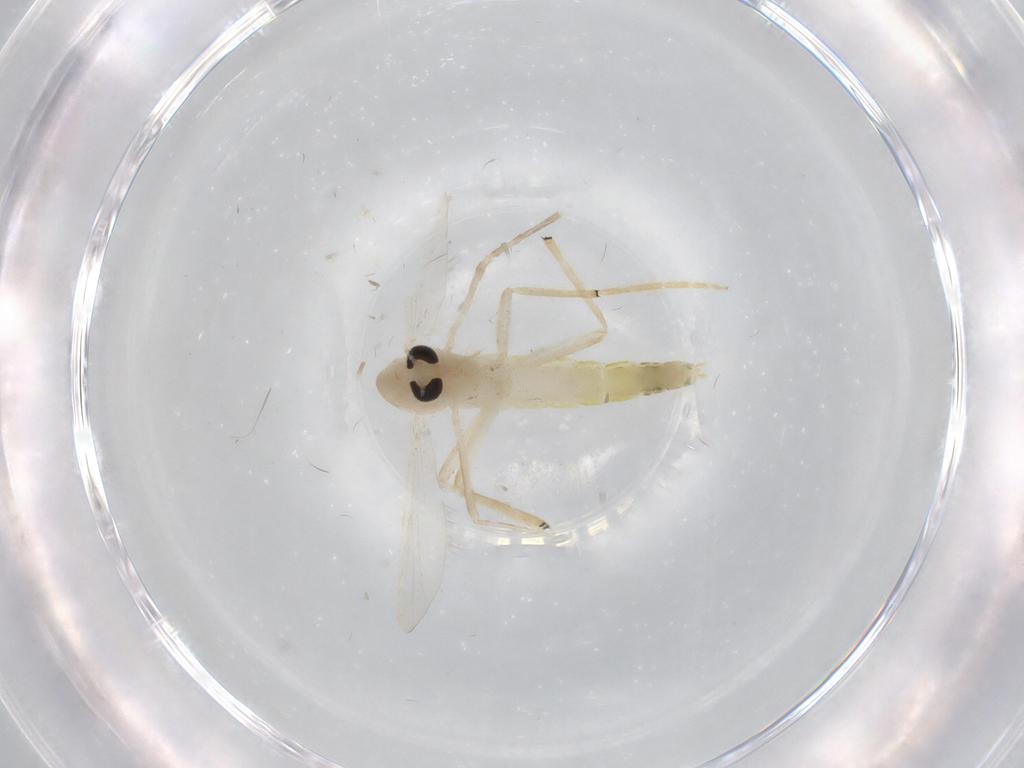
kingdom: Animalia
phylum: Arthropoda
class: Insecta
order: Diptera
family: Chironomidae
